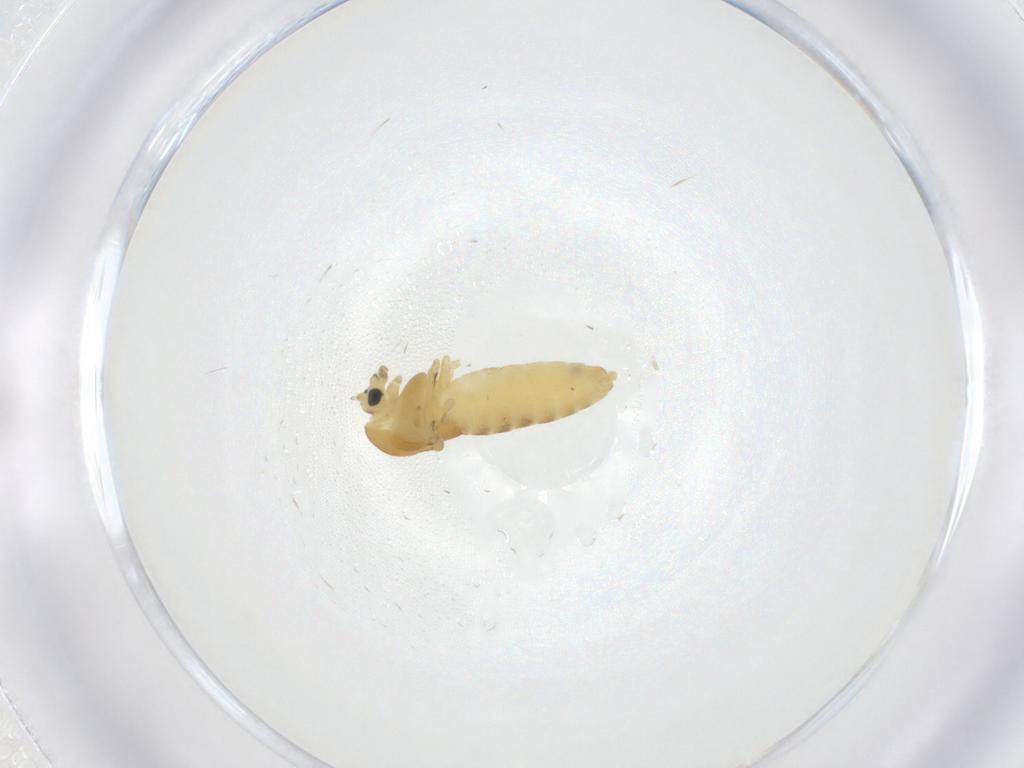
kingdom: Animalia
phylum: Arthropoda
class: Insecta
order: Diptera
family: Chironomidae
